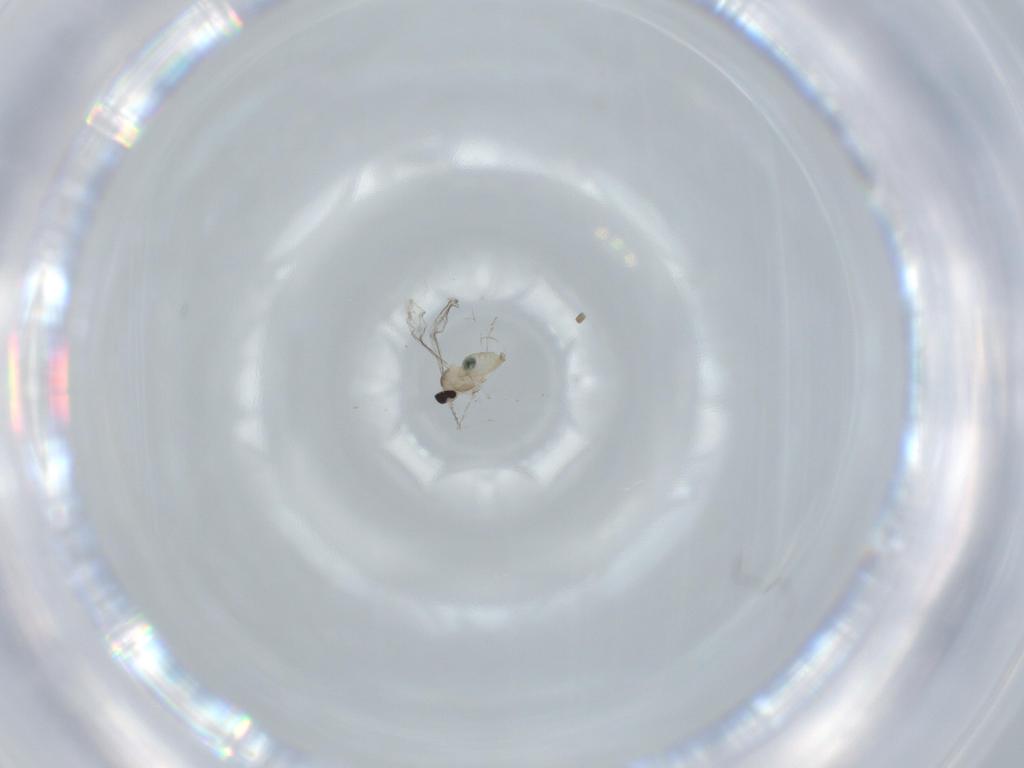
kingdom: Animalia
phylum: Arthropoda
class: Insecta
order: Diptera
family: Cecidomyiidae
